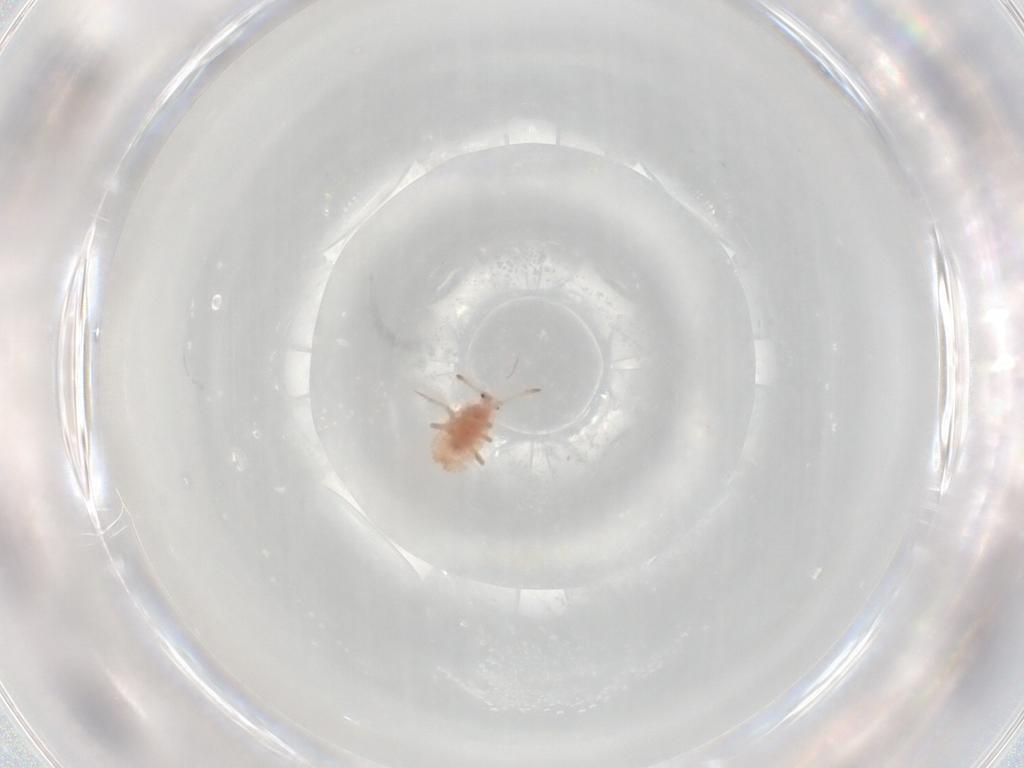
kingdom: Animalia
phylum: Arthropoda
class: Insecta
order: Hemiptera
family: Coccoidea_incertae_sedis
